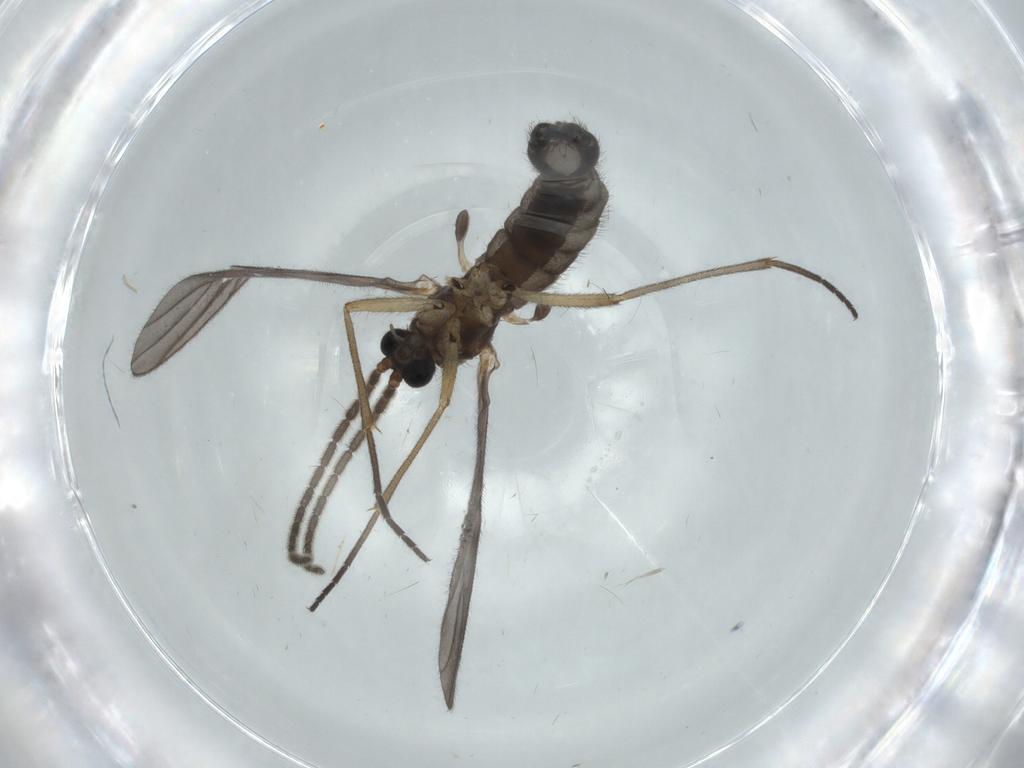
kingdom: Animalia
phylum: Arthropoda
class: Insecta
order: Diptera
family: Sciaridae
